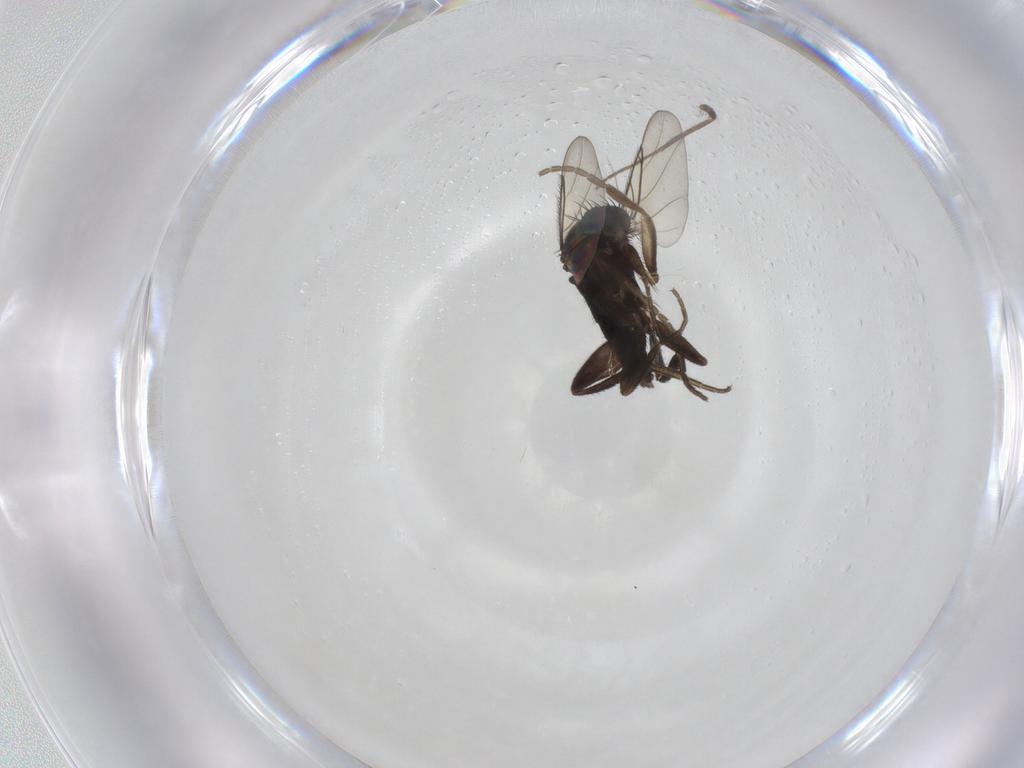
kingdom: Animalia
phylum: Arthropoda
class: Insecta
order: Diptera
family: Phoridae
